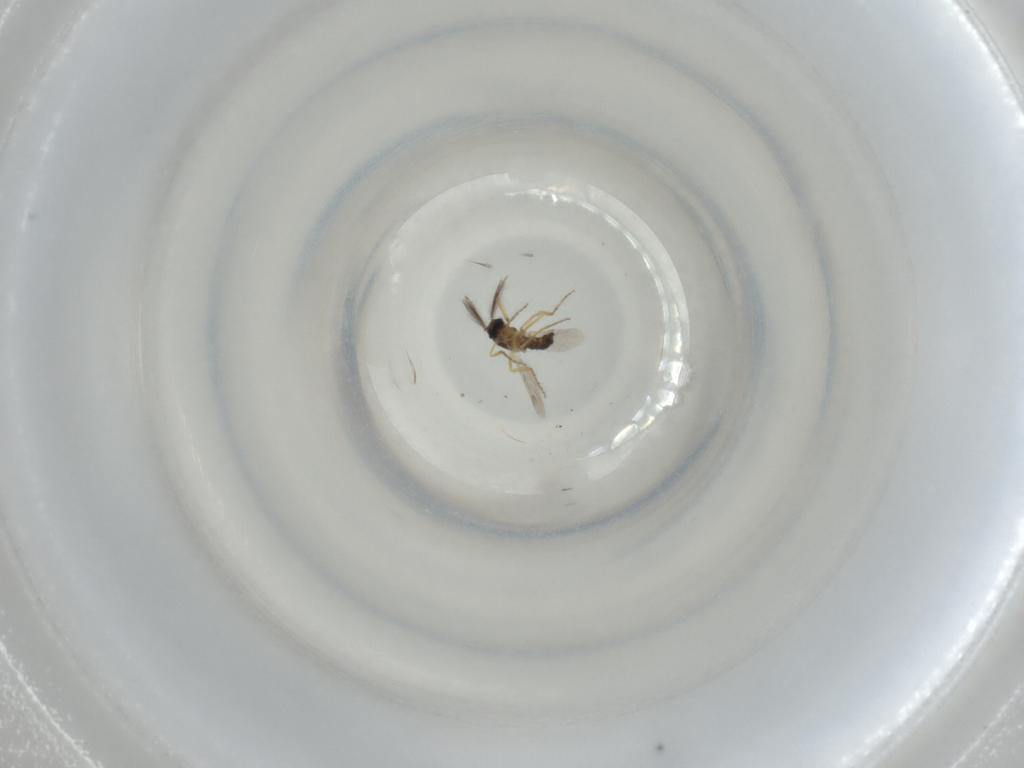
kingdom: Animalia
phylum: Arthropoda
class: Insecta
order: Diptera
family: Ceratopogonidae
